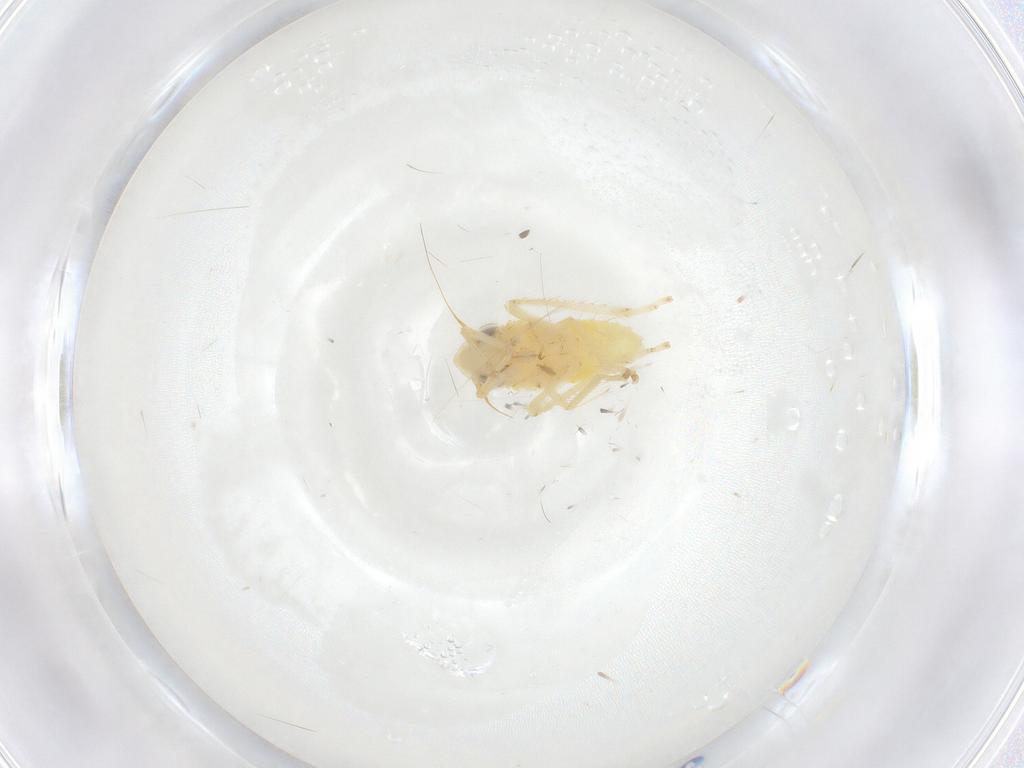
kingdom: Animalia
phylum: Arthropoda
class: Insecta
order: Hemiptera
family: Cicadellidae
